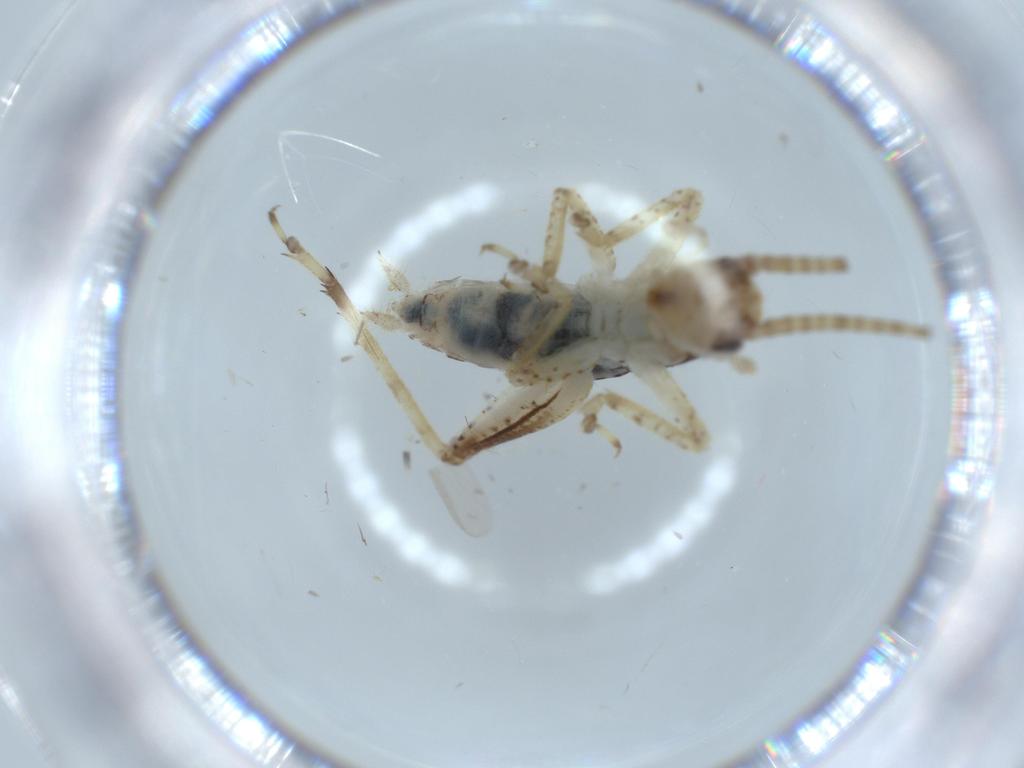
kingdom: Animalia
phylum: Arthropoda
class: Insecta
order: Orthoptera
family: Gryllidae
